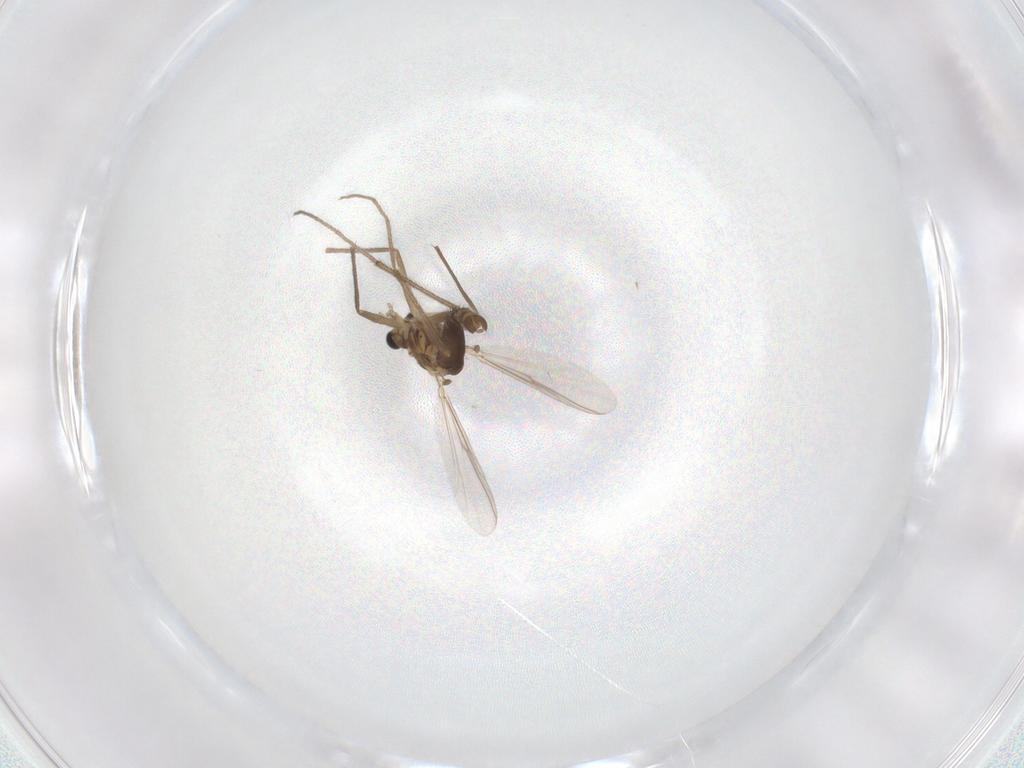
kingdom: Animalia
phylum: Arthropoda
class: Insecta
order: Diptera
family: Chironomidae
